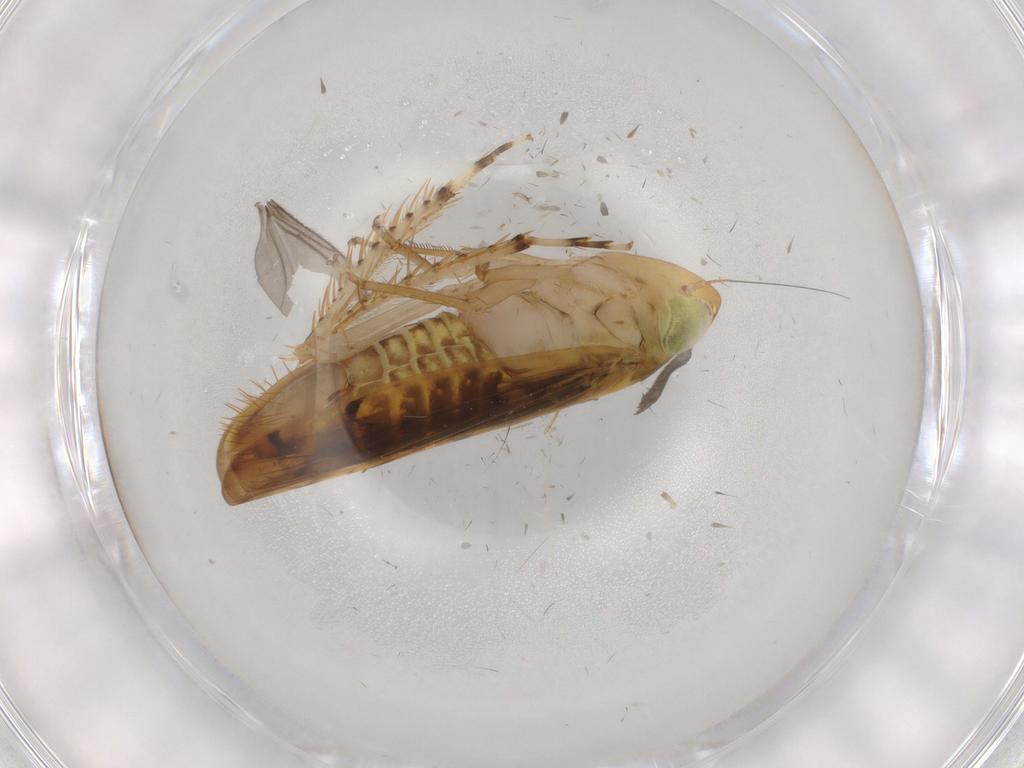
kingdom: Animalia
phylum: Arthropoda
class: Insecta
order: Hemiptera
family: Cicadellidae
